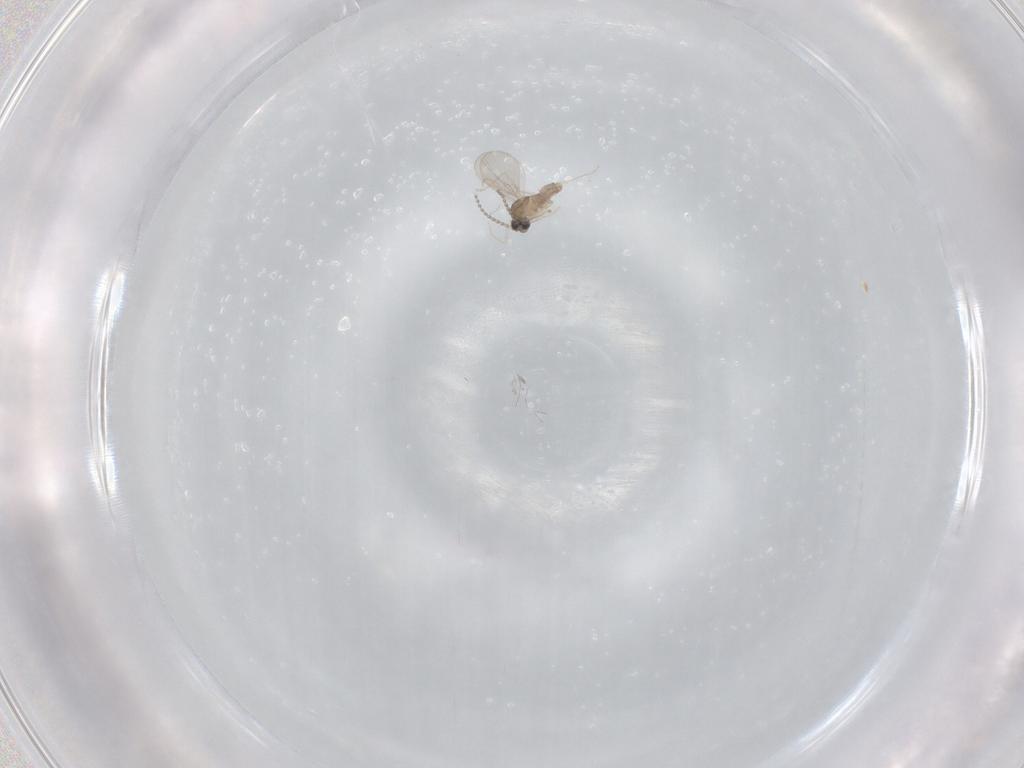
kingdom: Animalia
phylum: Arthropoda
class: Insecta
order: Diptera
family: Cecidomyiidae
